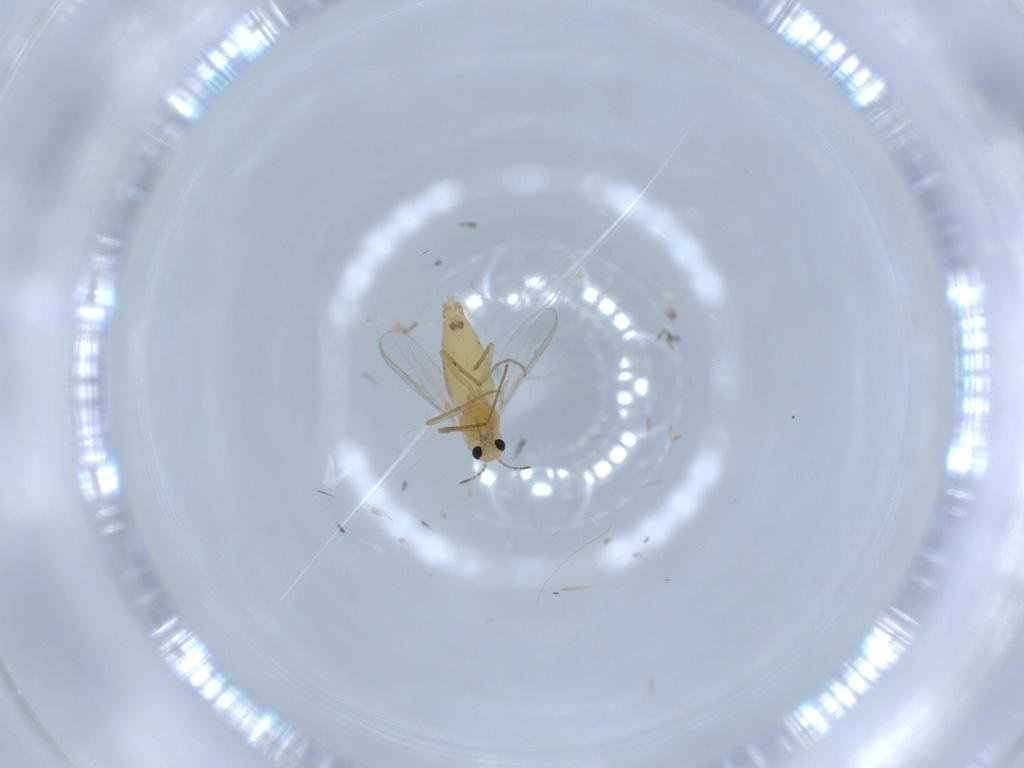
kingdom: Animalia
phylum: Arthropoda
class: Insecta
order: Diptera
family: Chironomidae
